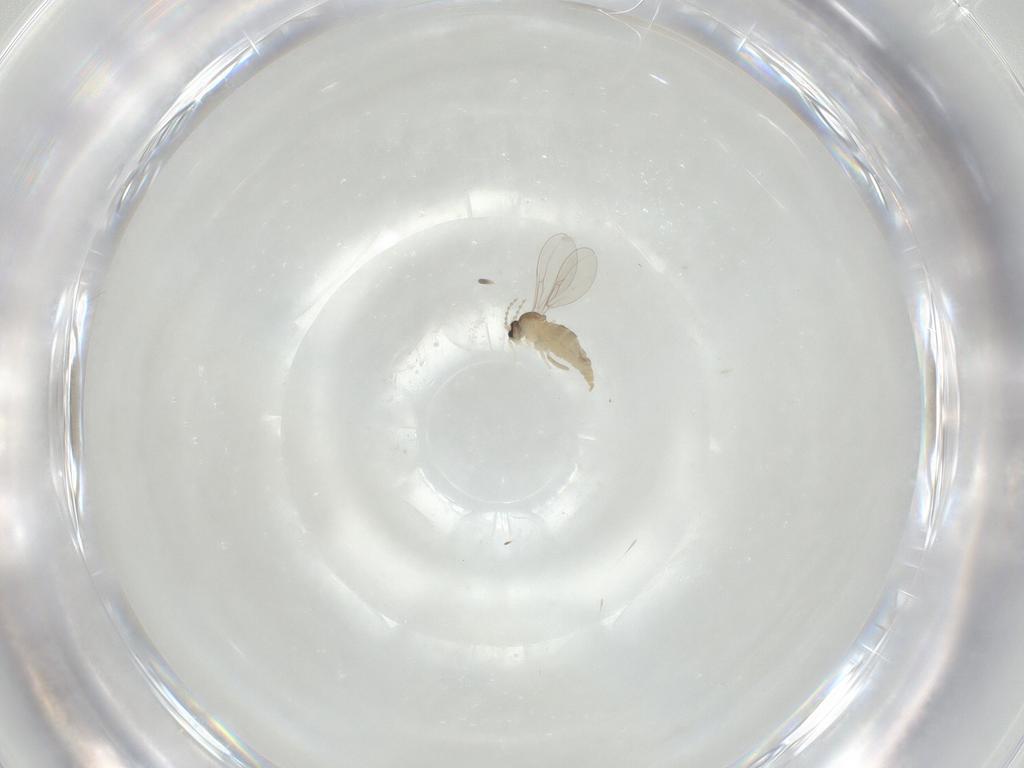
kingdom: Animalia
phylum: Arthropoda
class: Insecta
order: Diptera
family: Cecidomyiidae
